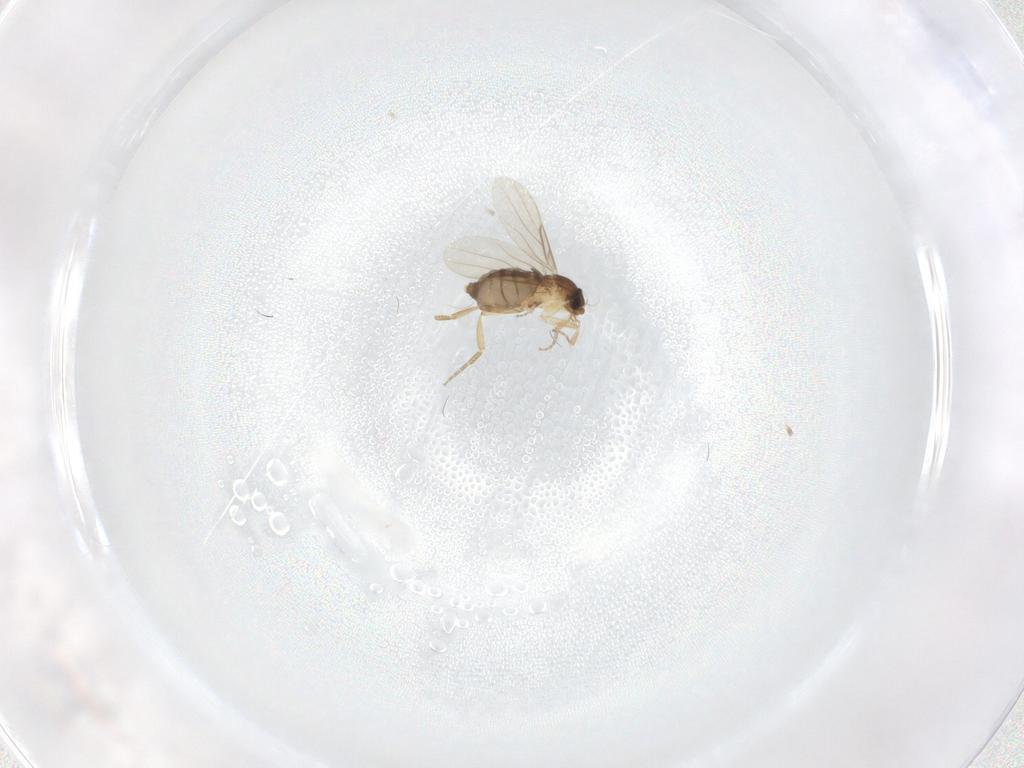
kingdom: Animalia
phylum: Arthropoda
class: Insecta
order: Diptera
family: Phoridae
